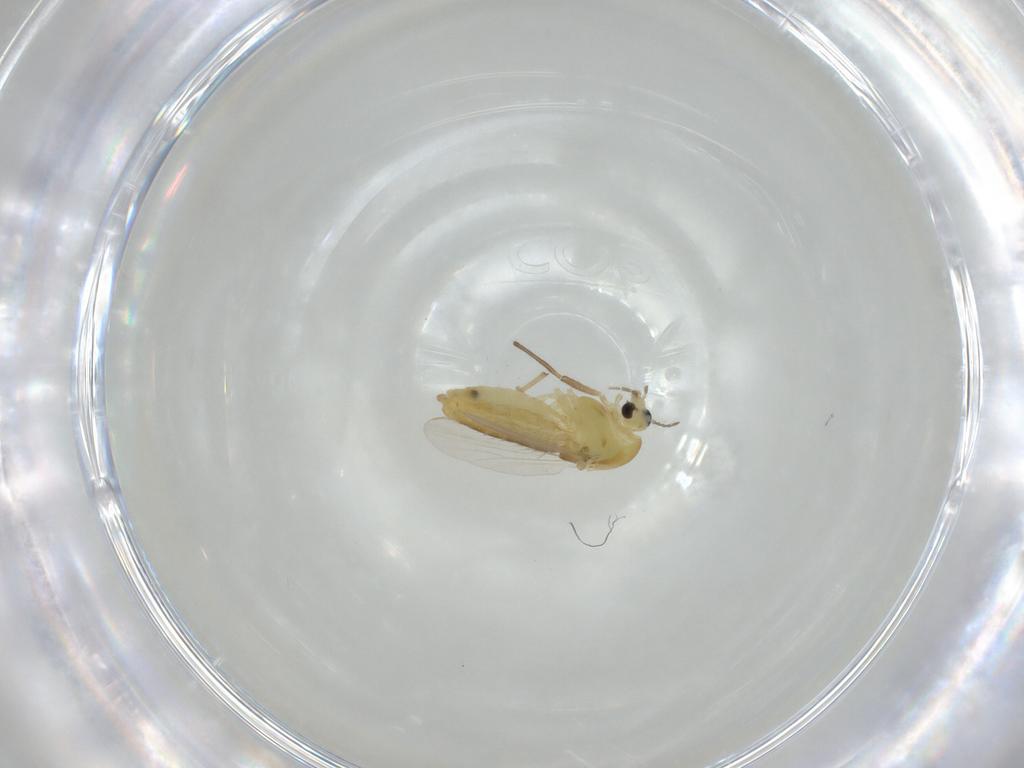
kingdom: Animalia
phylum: Arthropoda
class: Insecta
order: Diptera
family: Chironomidae
